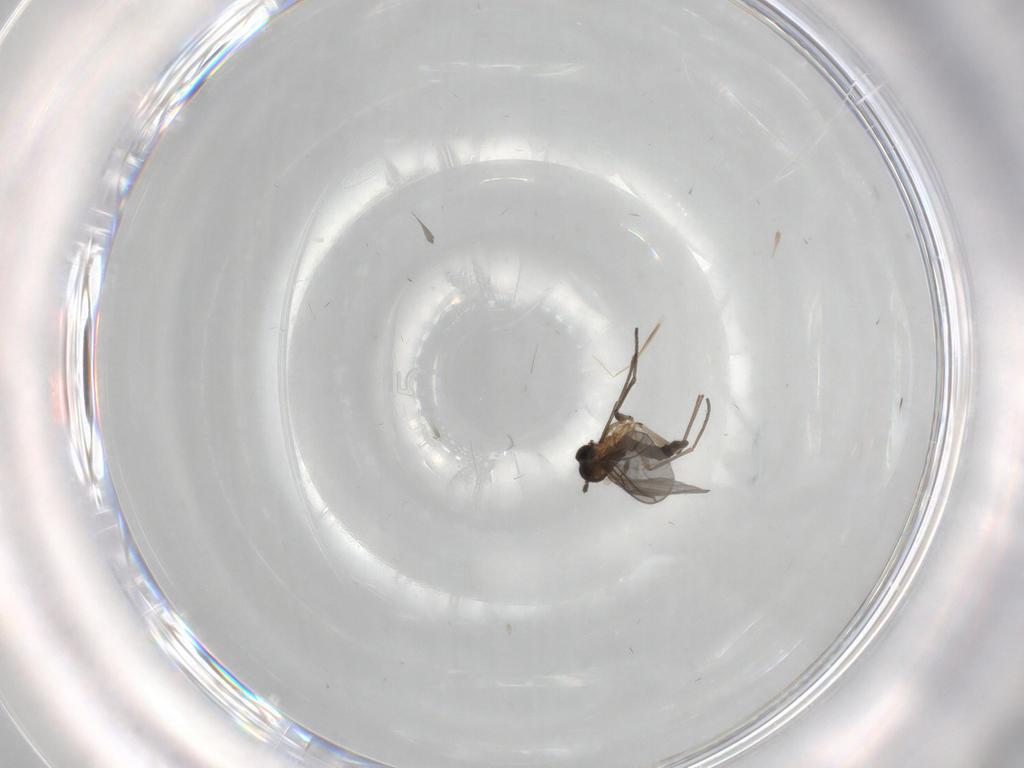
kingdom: Animalia
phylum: Arthropoda
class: Insecta
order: Diptera
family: Sciaridae
